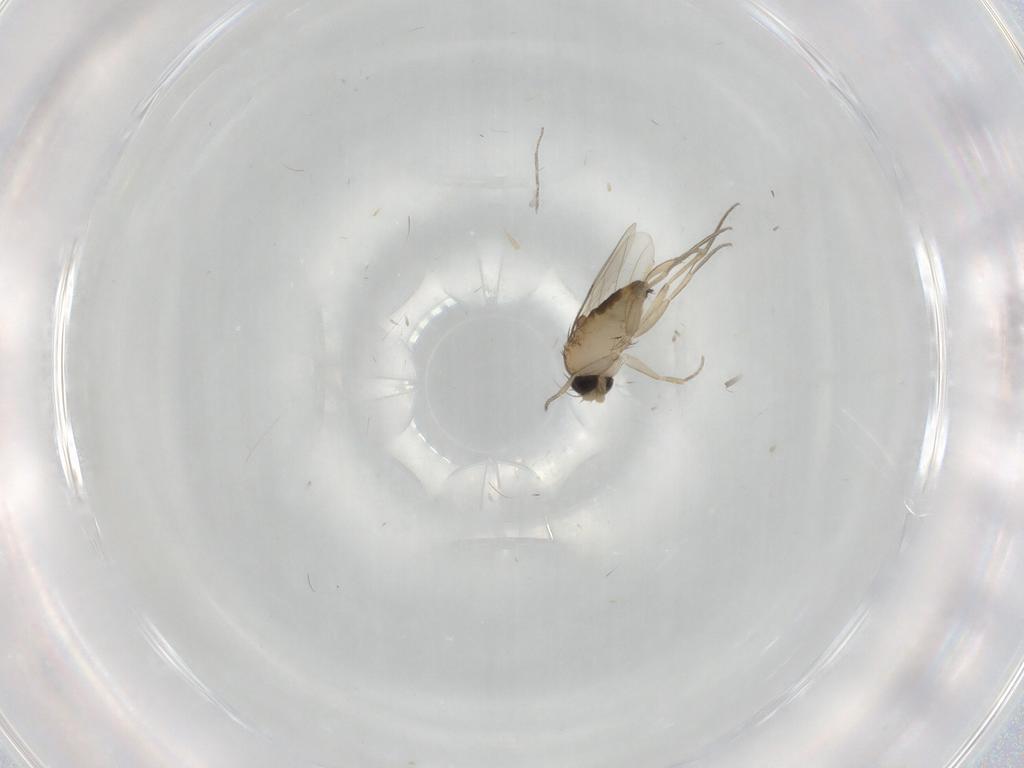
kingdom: Animalia
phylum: Arthropoda
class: Insecta
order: Diptera
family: Phoridae
